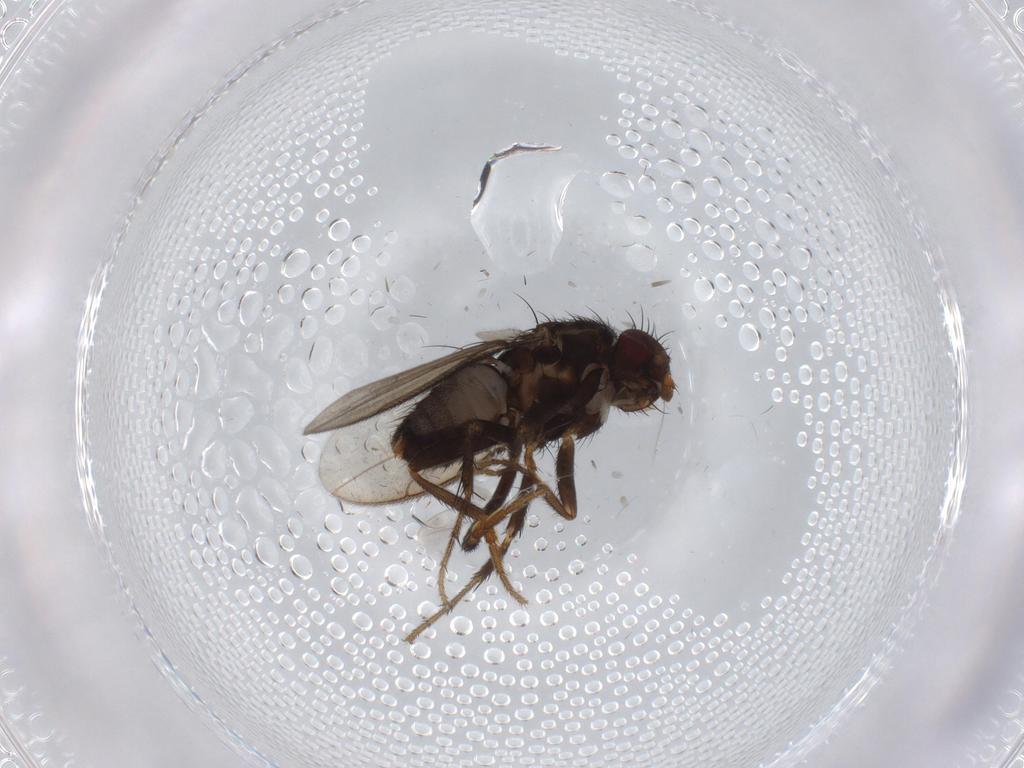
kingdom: Animalia
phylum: Arthropoda
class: Insecta
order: Diptera
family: Sphaeroceridae
